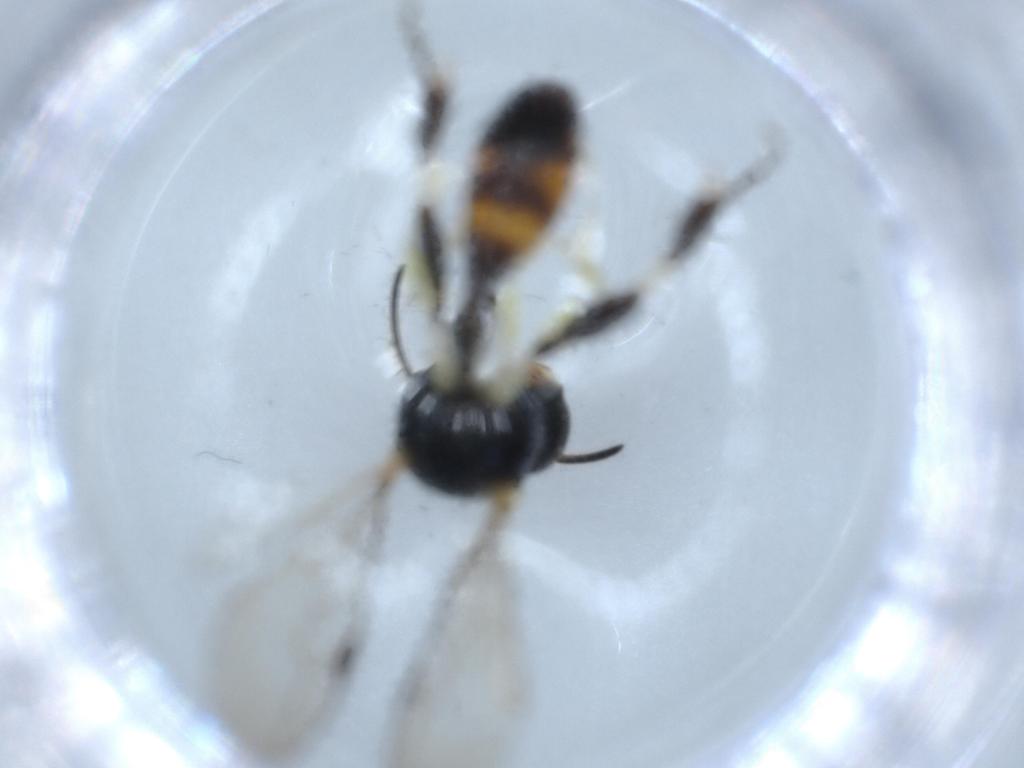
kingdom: Animalia
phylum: Arthropoda
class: Insecta
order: Hymenoptera
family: Crabronidae
